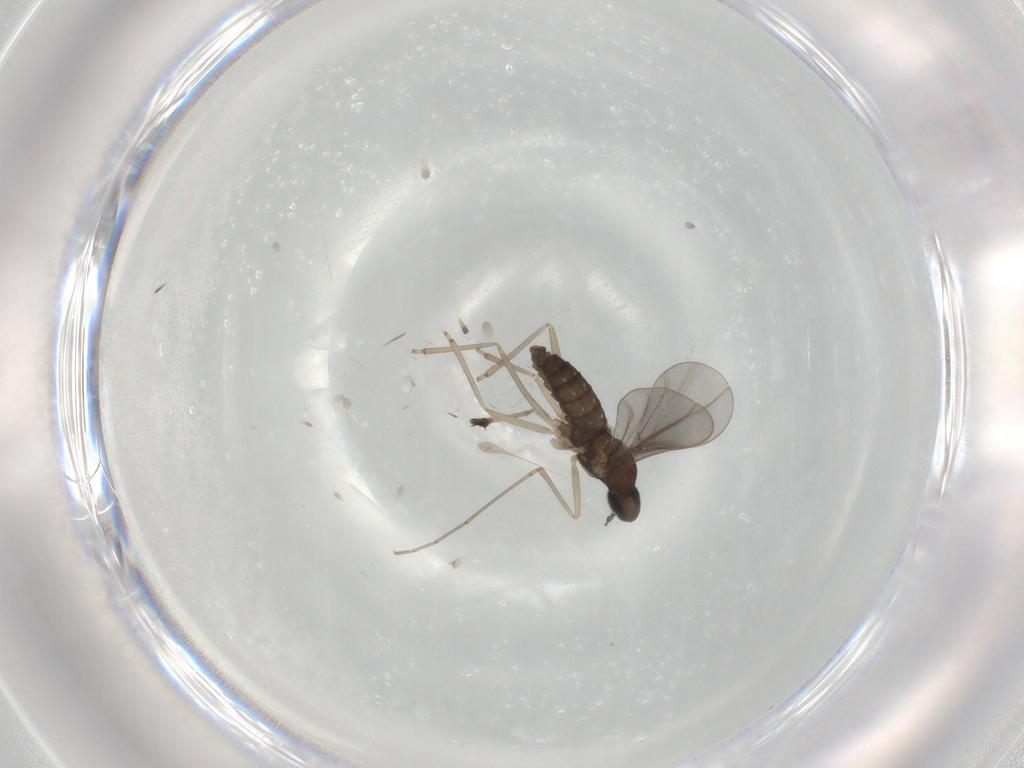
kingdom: Animalia
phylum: Arthropoda
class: Insecta
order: Diptera
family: Cecidomyiidae
